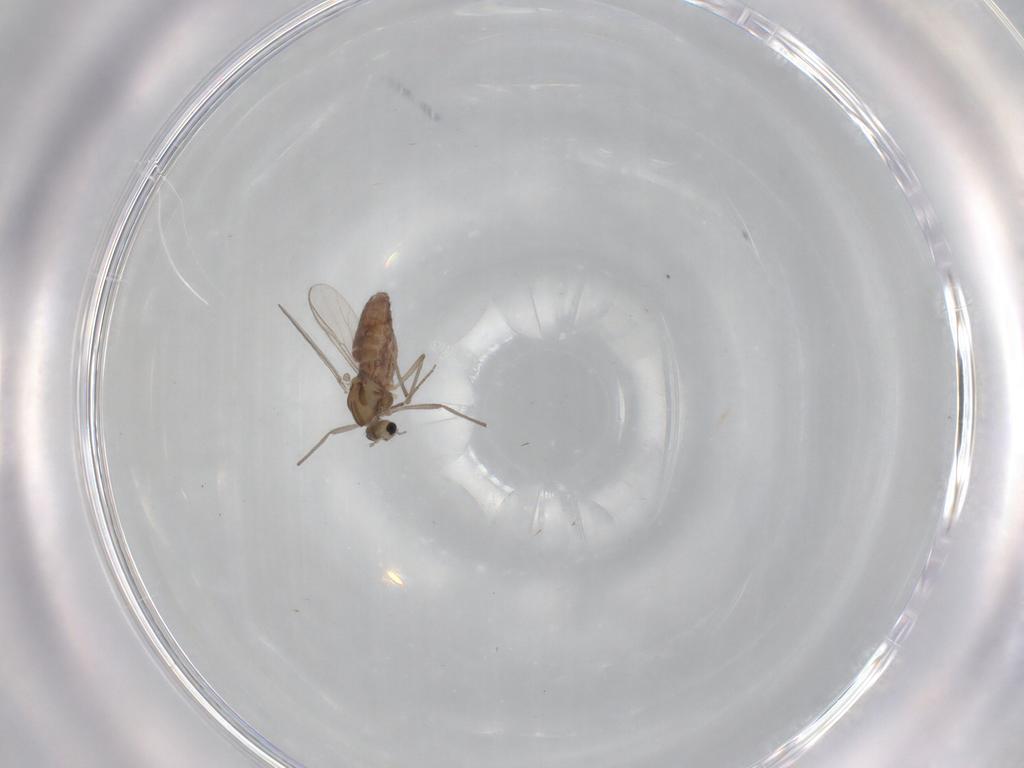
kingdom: Animalia
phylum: Arthropoda
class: Insecta
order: Diptera
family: Chironomidae
